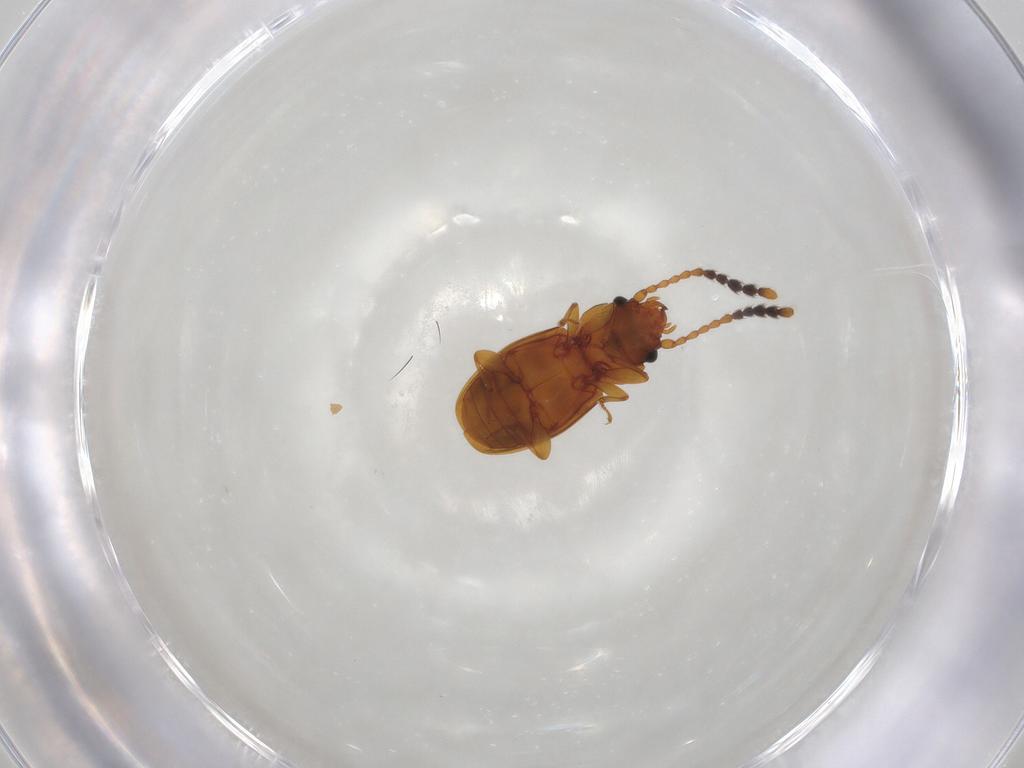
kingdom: Animalia
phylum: Arthropoda
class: Insecta
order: Coleoptera
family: Laemophloeidae
